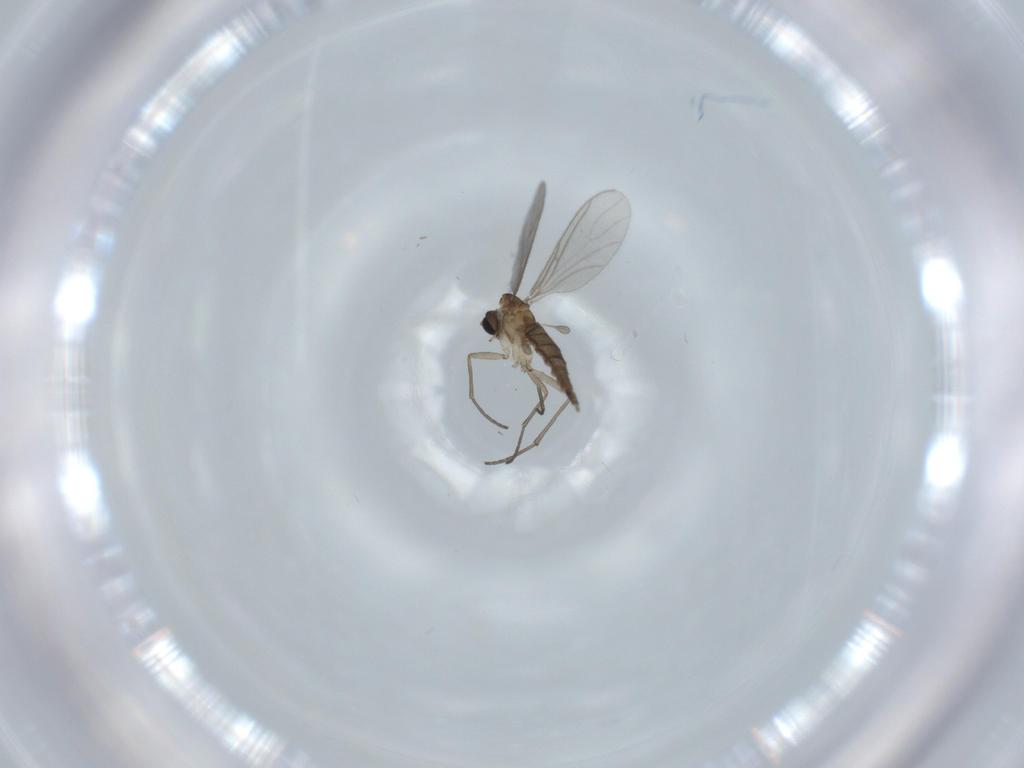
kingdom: Animalia
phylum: Arthropoda
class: Insecta
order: Diptera
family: Sciaridae
